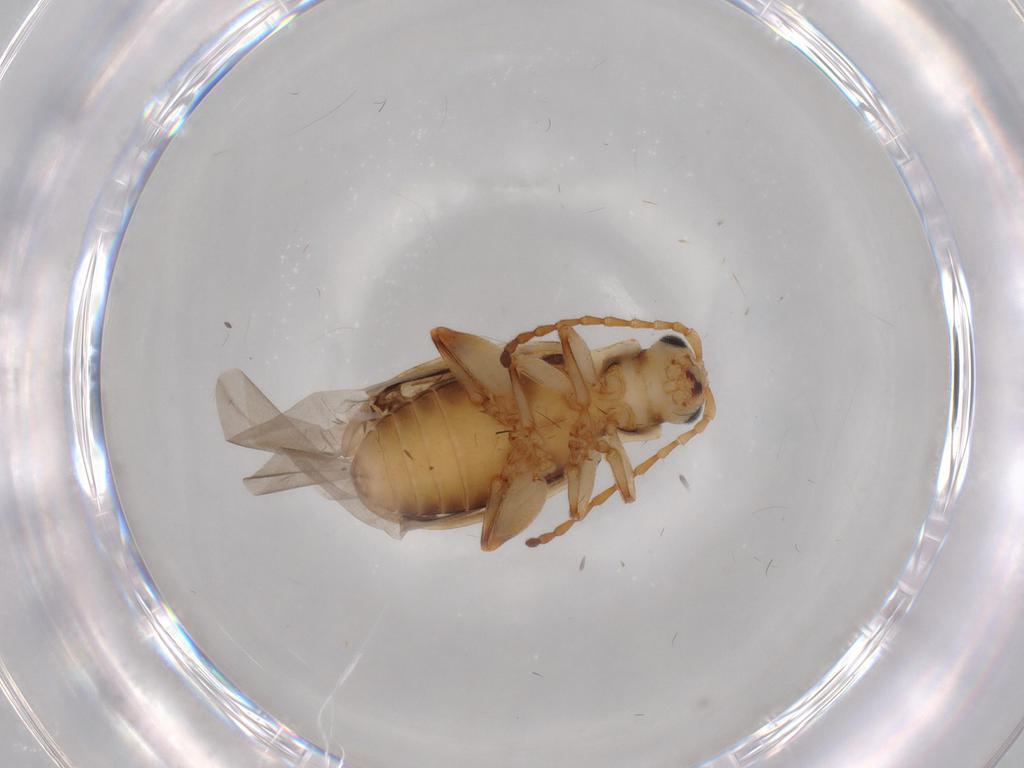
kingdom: Animalia
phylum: Arthropoda
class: Insecta
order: Coleoptera
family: Chrysomelidae
